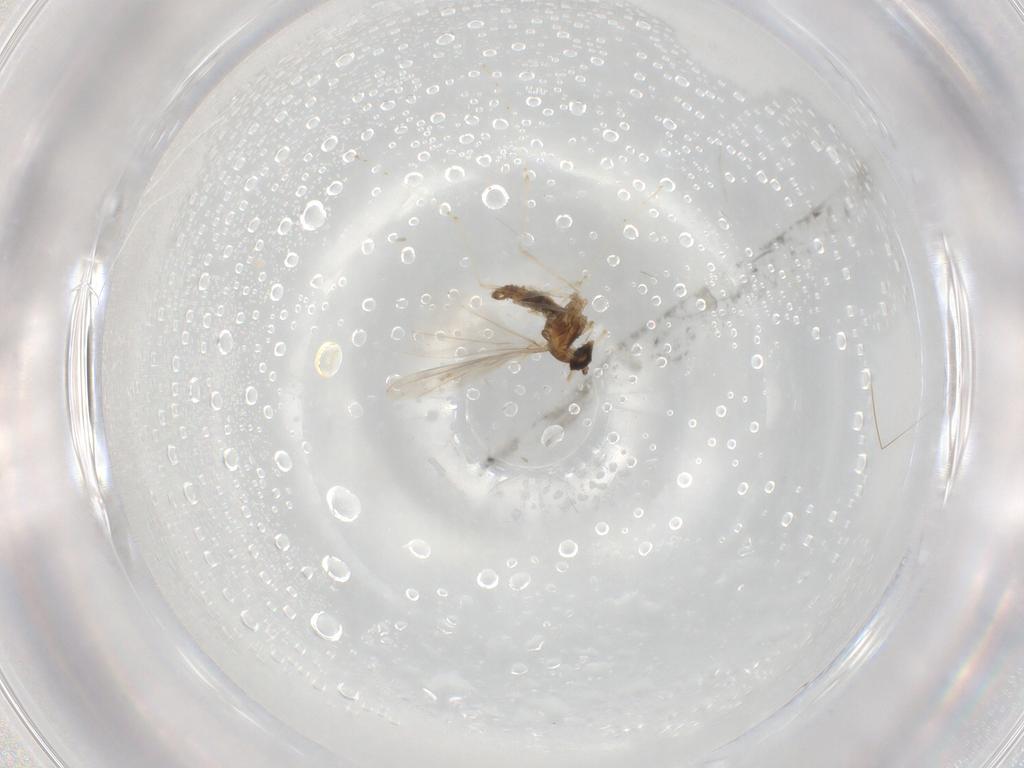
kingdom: Animalia
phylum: Arthropoda
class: Insecta
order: Diptera
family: Cecidomyiidae
